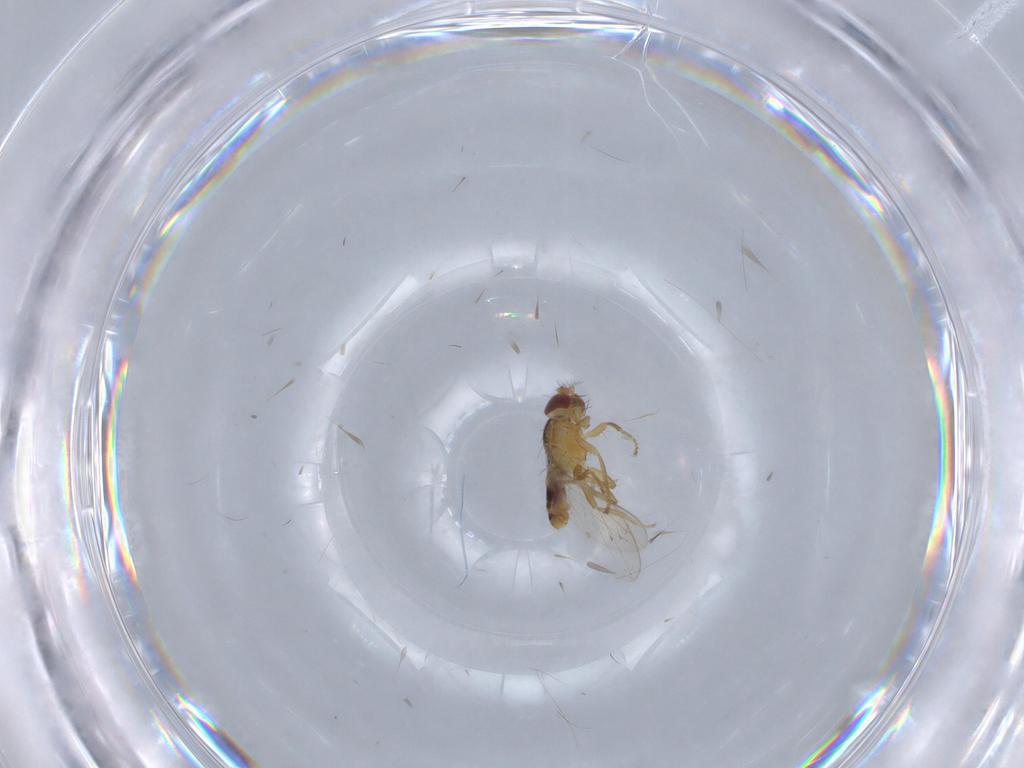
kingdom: Animalia
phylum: Arthropoda
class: Insecta
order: Diptera
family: Periscelididae
